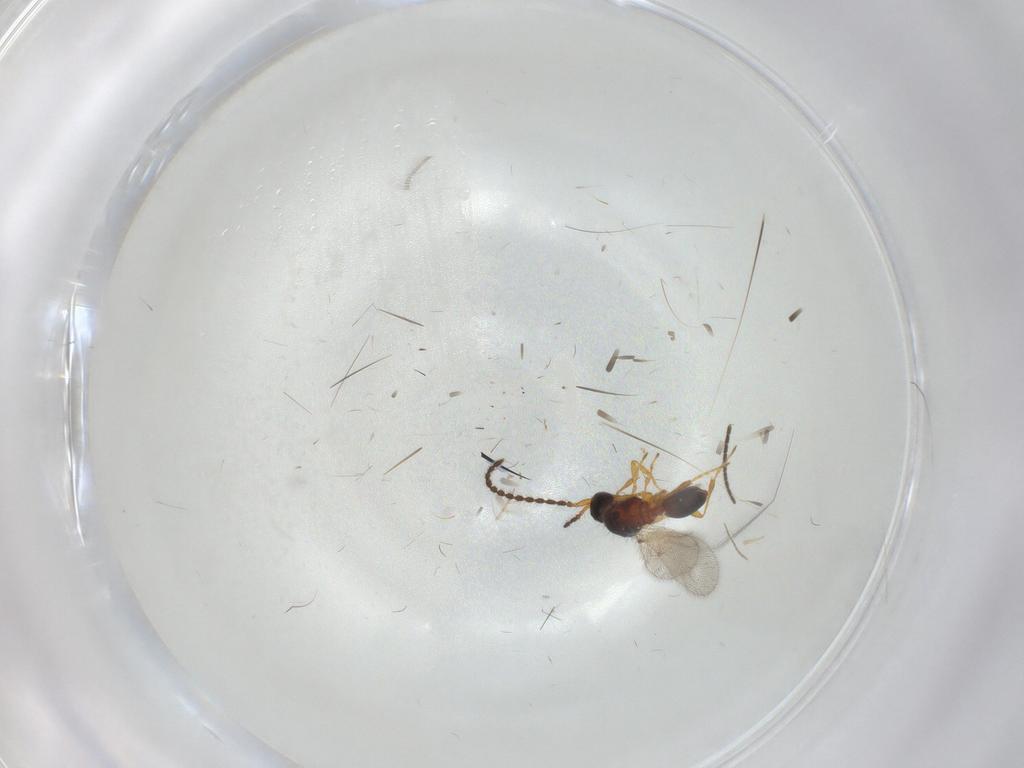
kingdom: Animalia
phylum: Arthropoda
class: Insecta
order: Hymenoptera
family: Diapriidae
